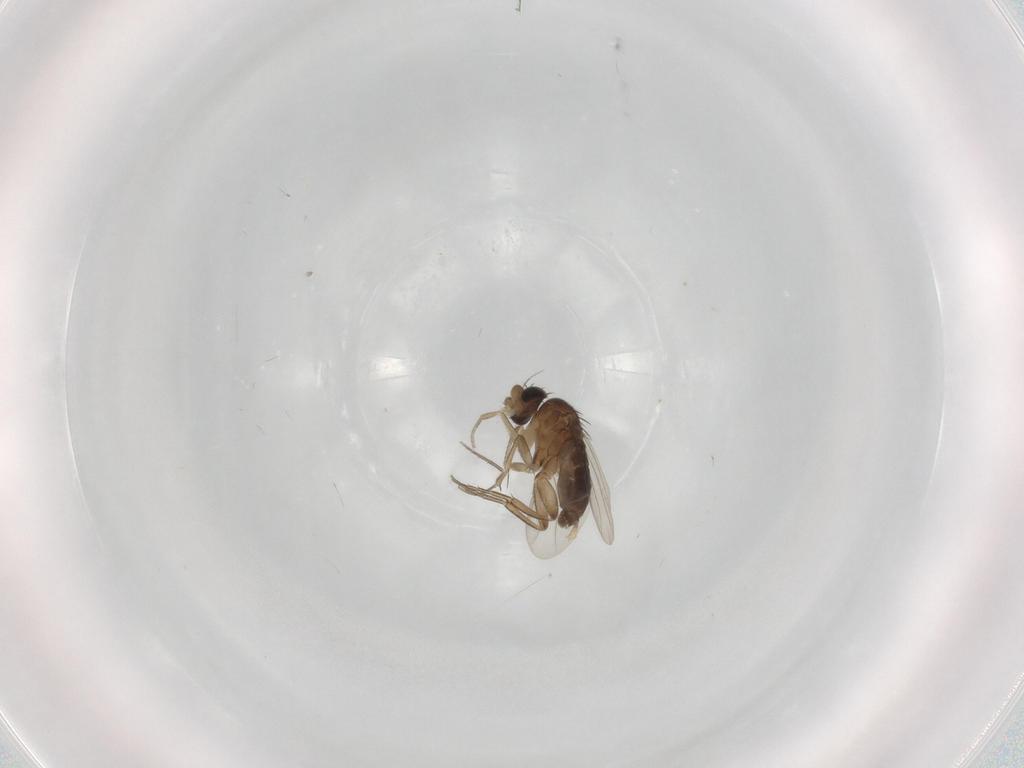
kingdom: Animalia
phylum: Arthropoda
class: Insecta
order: Diptera
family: Phoridae
